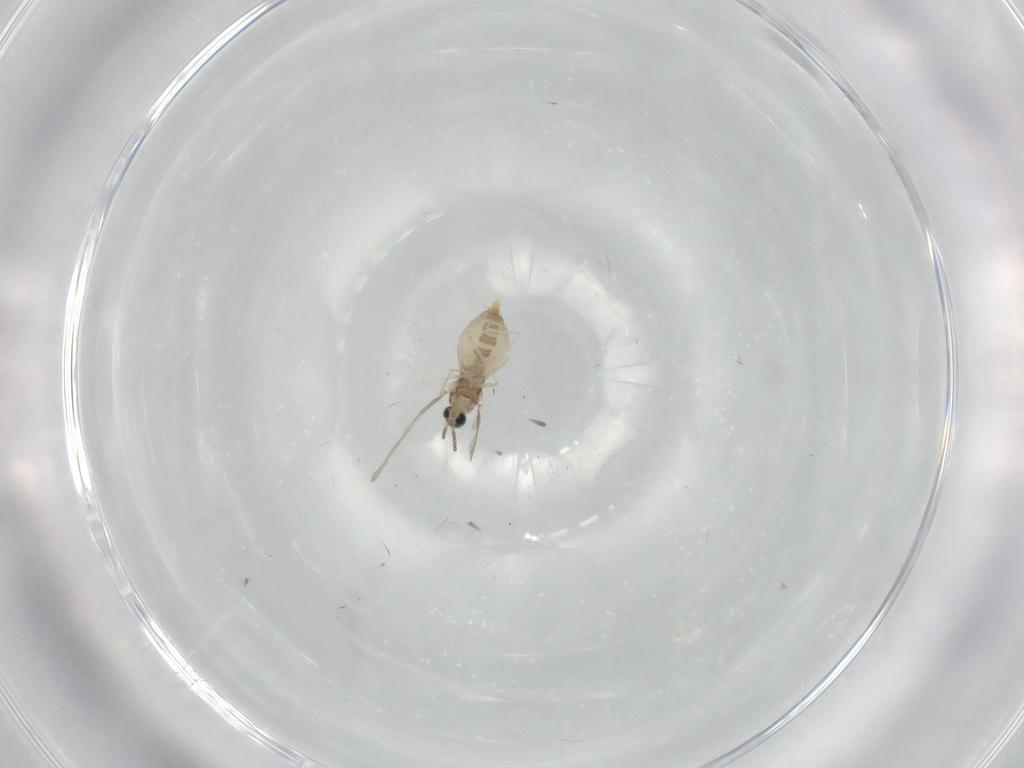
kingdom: Animalia
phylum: Arthropoda
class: Insecta
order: Diptera
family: Cecidomyiidae
